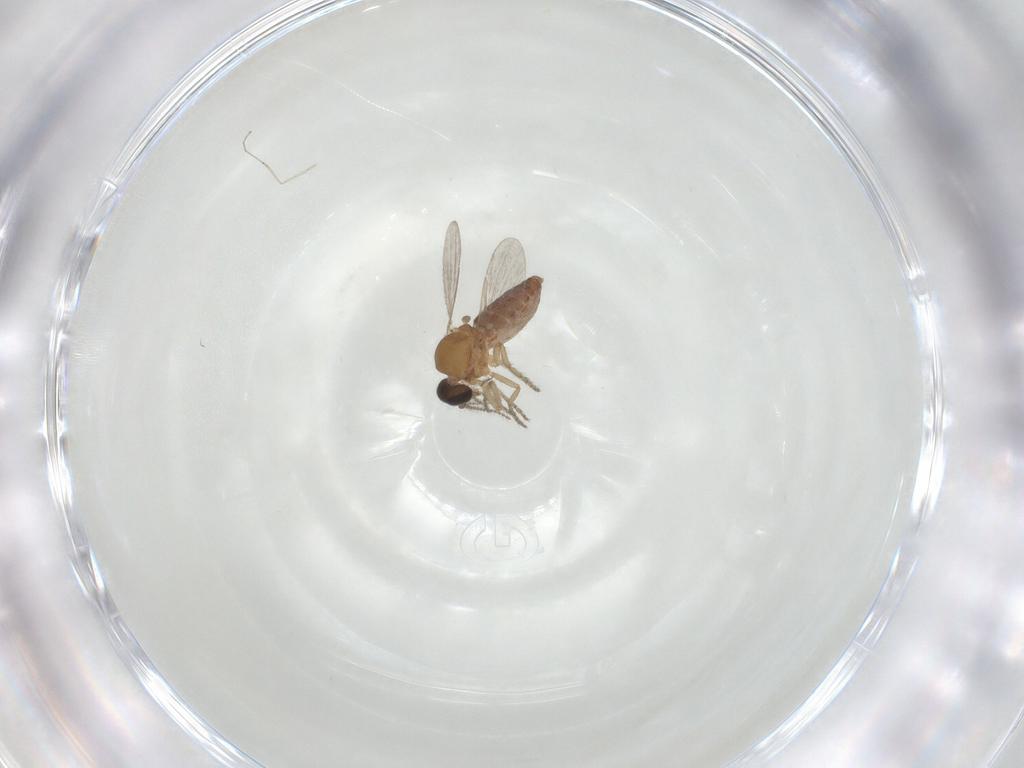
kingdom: Animalia
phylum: Arthropoda
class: Insecta
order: Diptera
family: Ceratopogonidae
